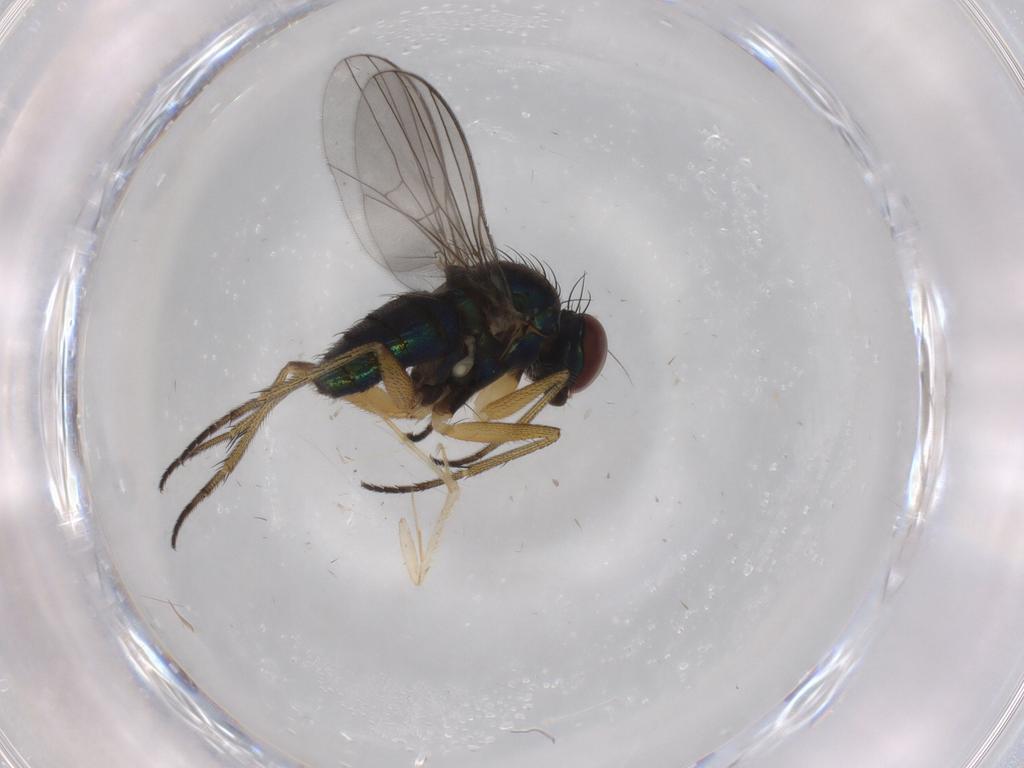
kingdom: Animalia
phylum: Arthropoda
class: Insecta
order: Diptera
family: Dolichopodidae
